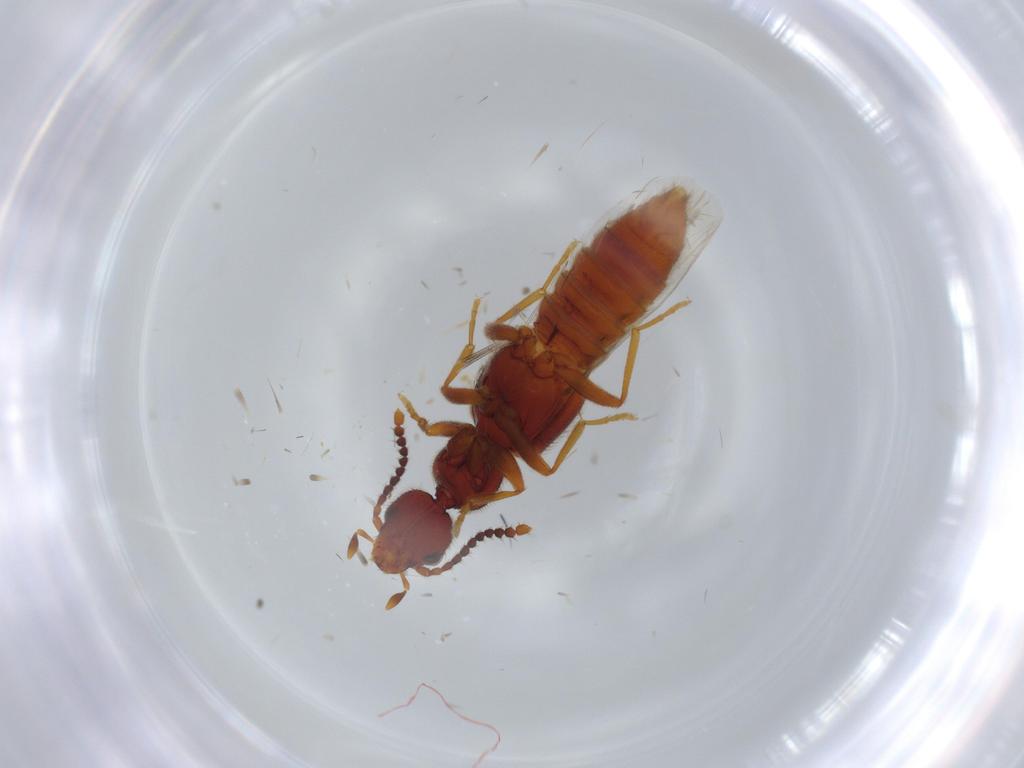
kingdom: Animalia
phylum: Arthropoda
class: Insecta
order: Coleoptera
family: Chrysomelidae
